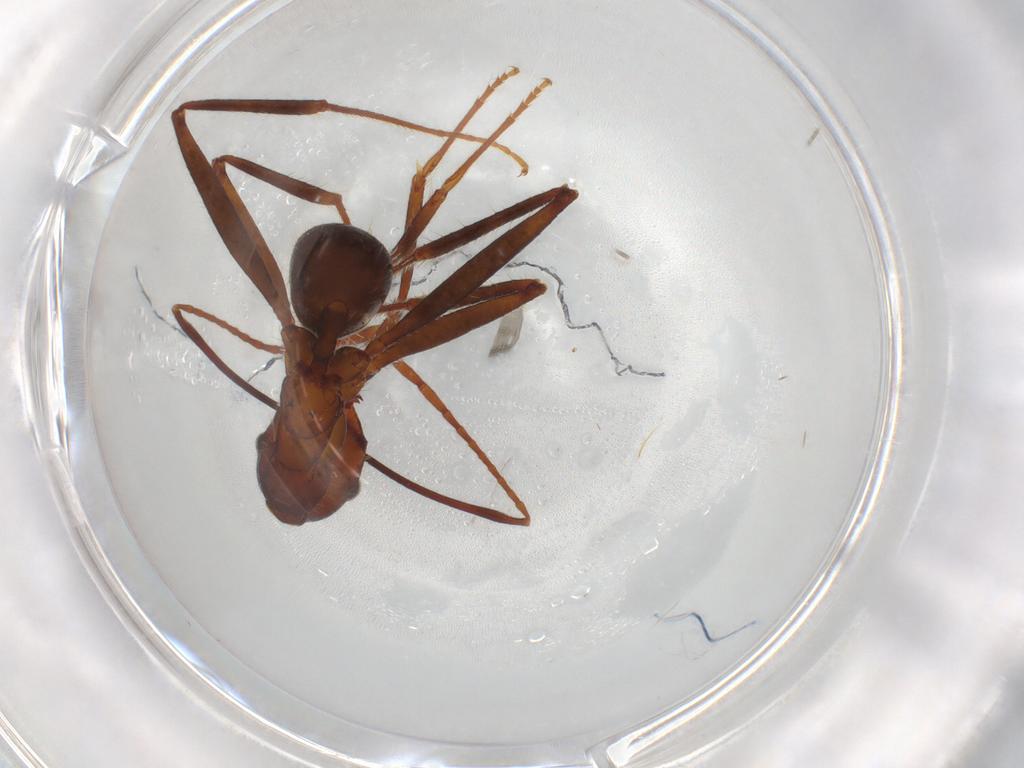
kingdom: Animalia
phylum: Arthropoda
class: Insecta
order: Hymenoptera
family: Formicidae
